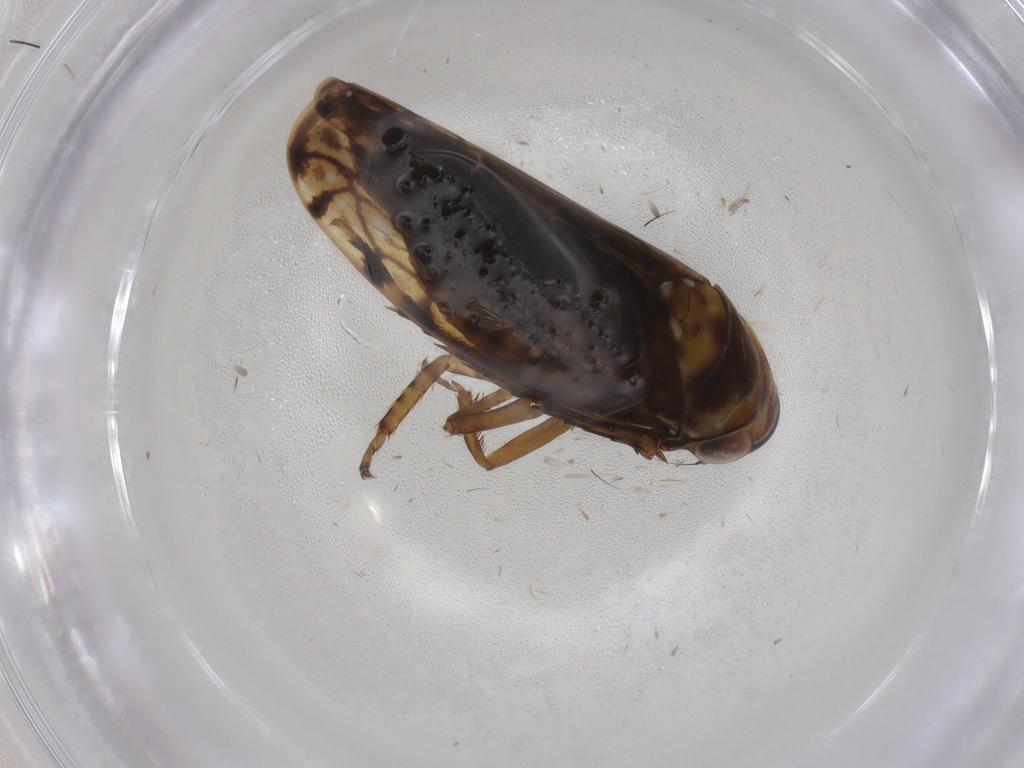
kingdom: Animalia
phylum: Arthropoda
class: Insecta
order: Hemiptera
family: Cicadellidae
